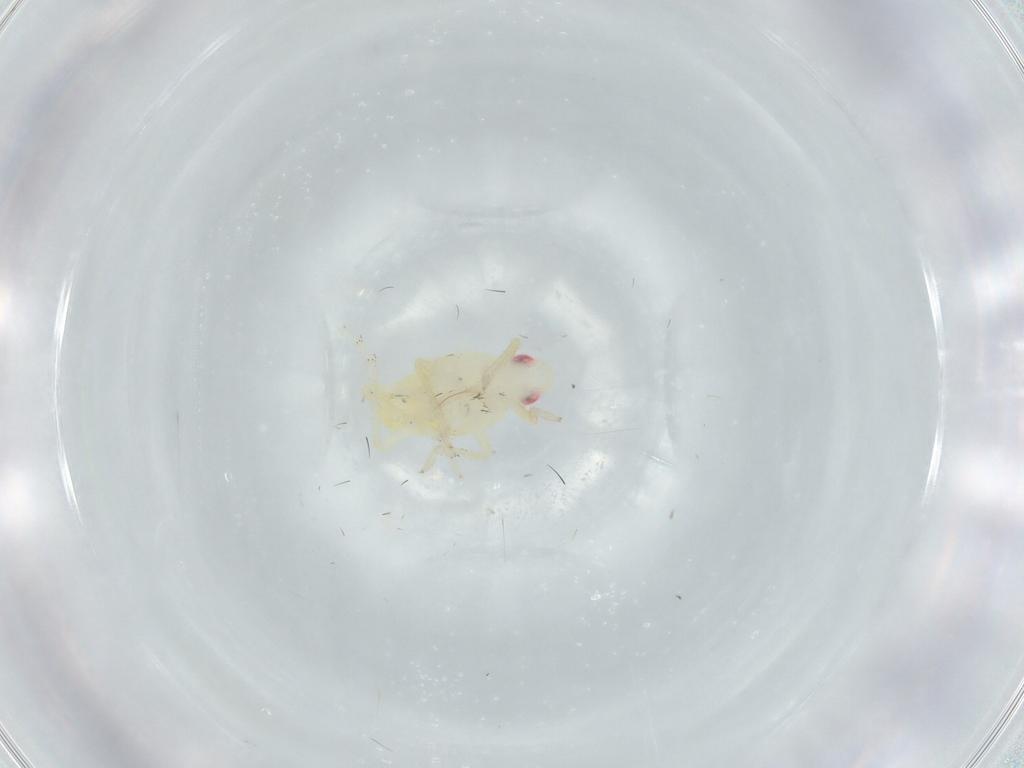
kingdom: Animalia
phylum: Arthropoda
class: Insecta
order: Hemiptera
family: Tropiduchidae
